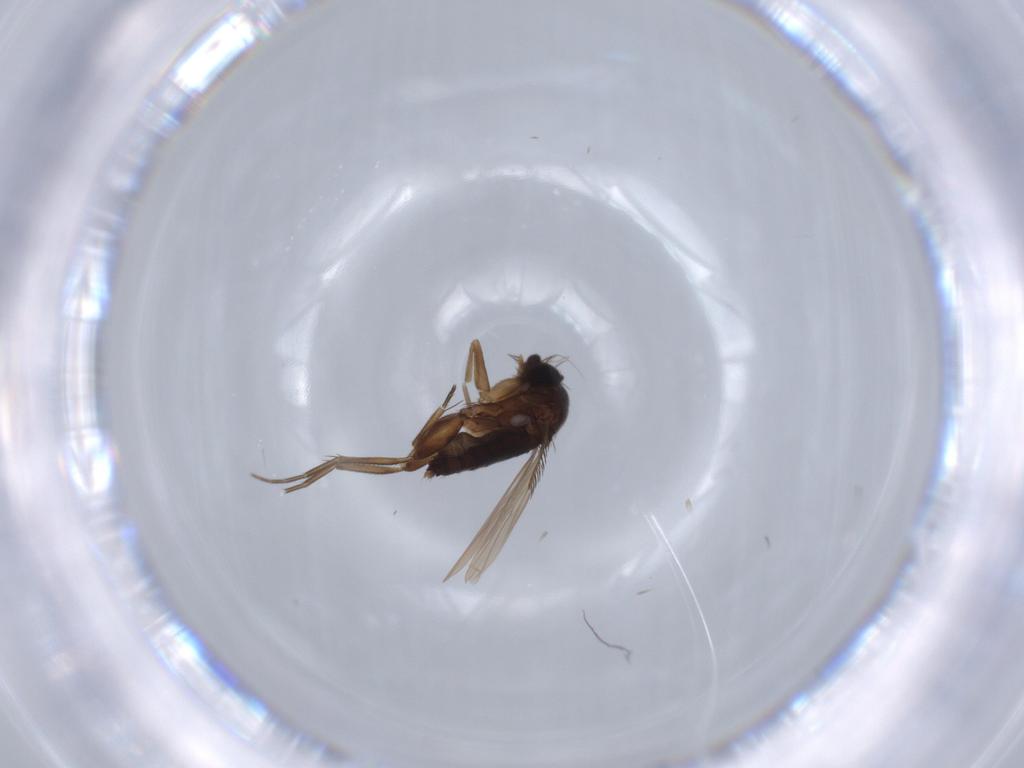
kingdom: Animalia
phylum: Arthropoda
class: Insecta
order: Diptera
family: Phoridae
